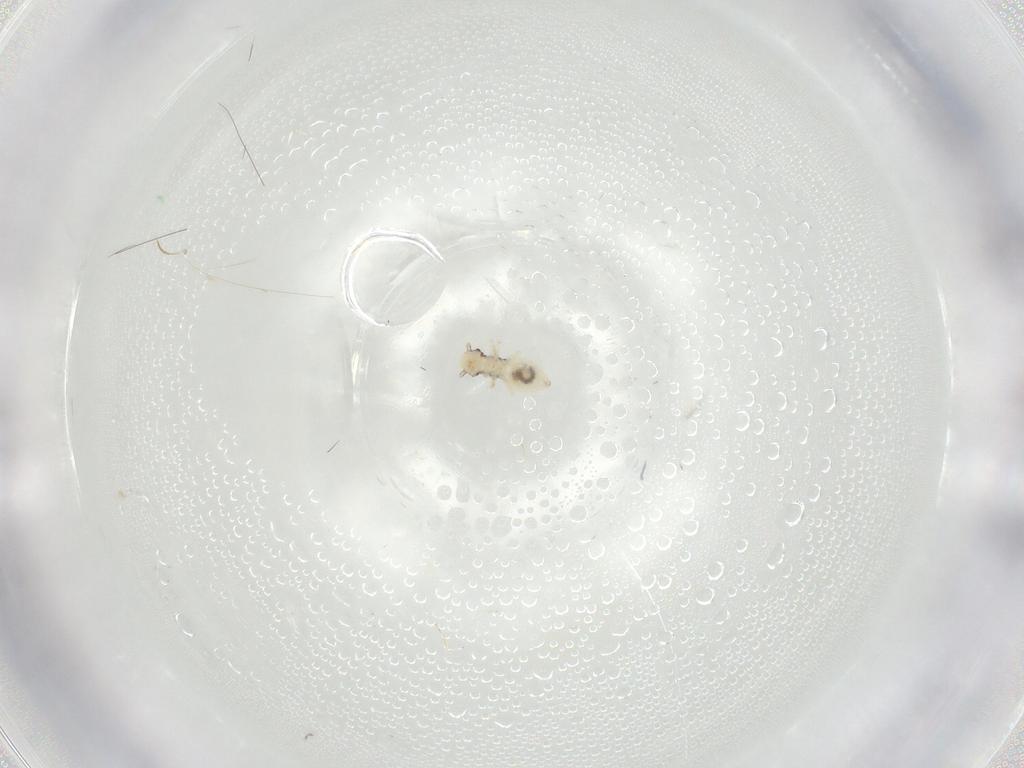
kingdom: Animalia
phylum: Arthropoda
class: Insecta
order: Psocodea
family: Philotarsidae
